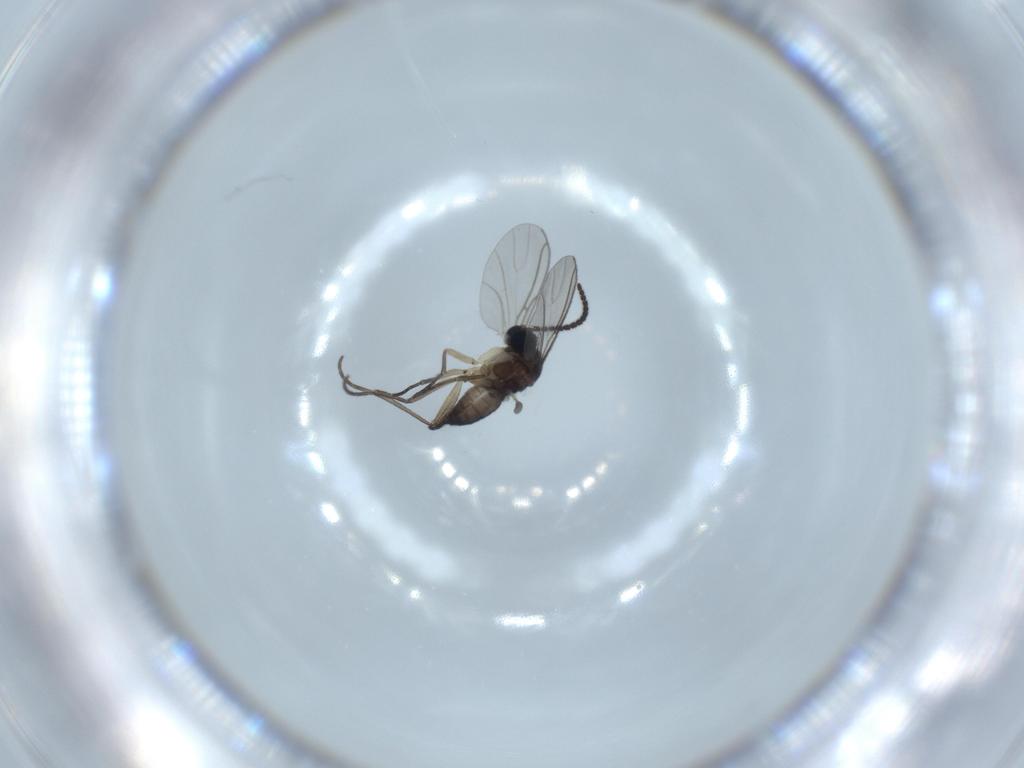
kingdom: Animalia
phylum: Arthropoda
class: Insecta
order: Diptera
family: Sciaridae
